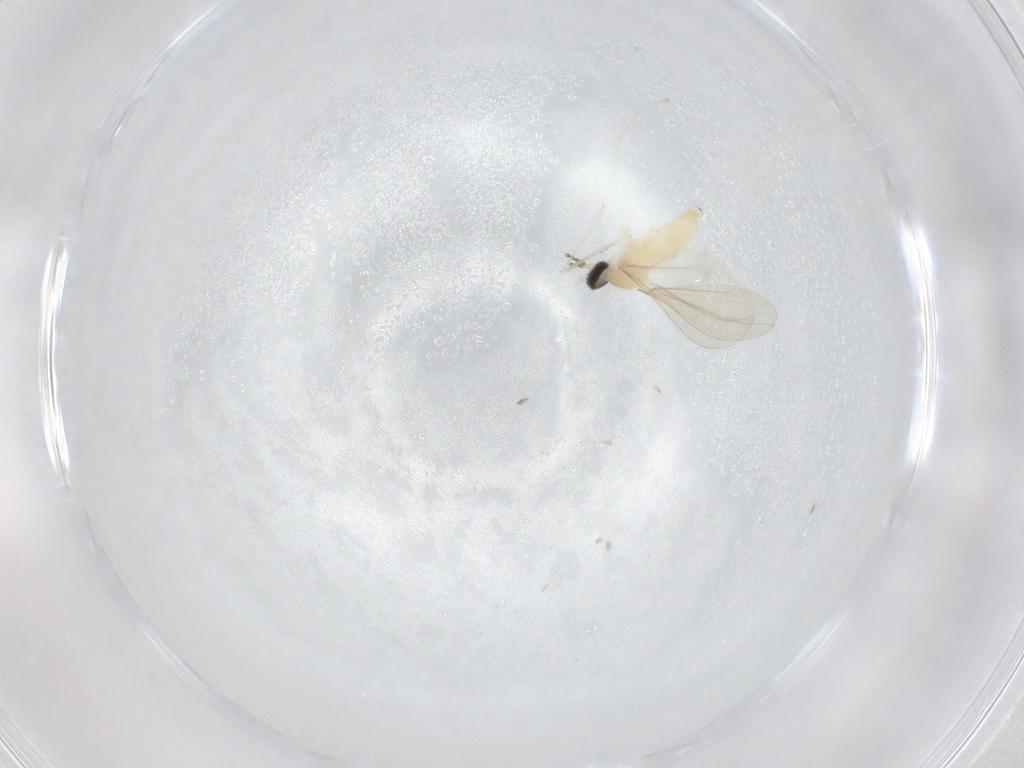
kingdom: Animalia
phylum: Arthropoda
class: Insecta
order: Diptera
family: Cecidomyiidae
